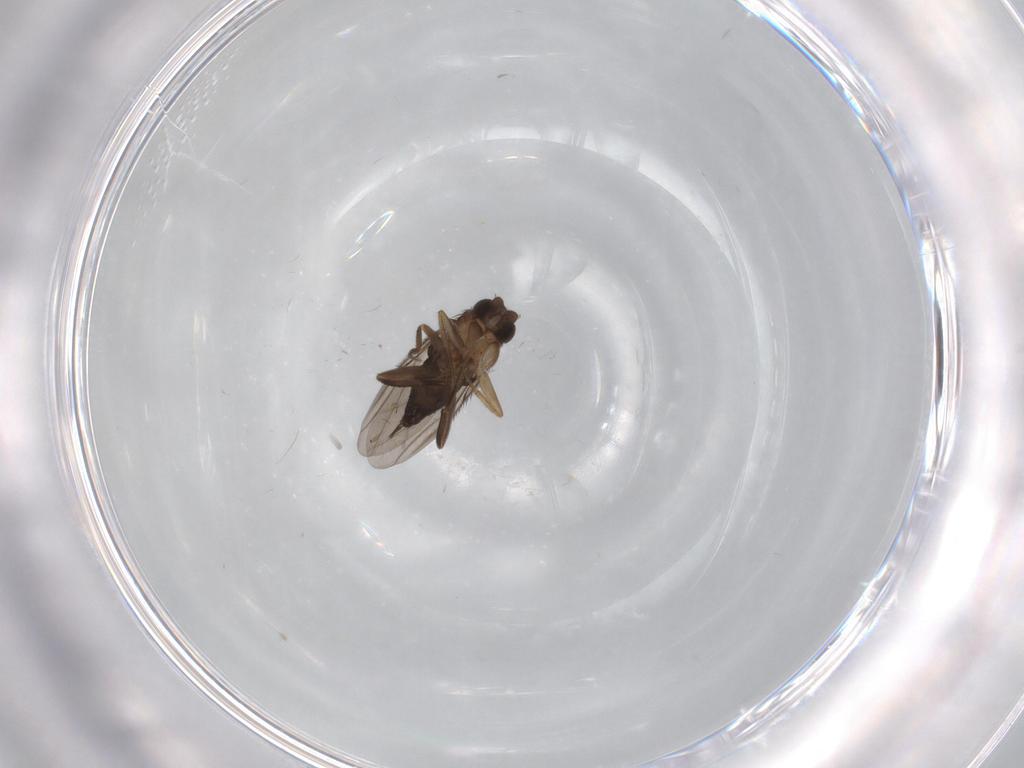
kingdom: Animalia
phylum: Arthropoda
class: Insecta
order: Diptera
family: Phoridae
